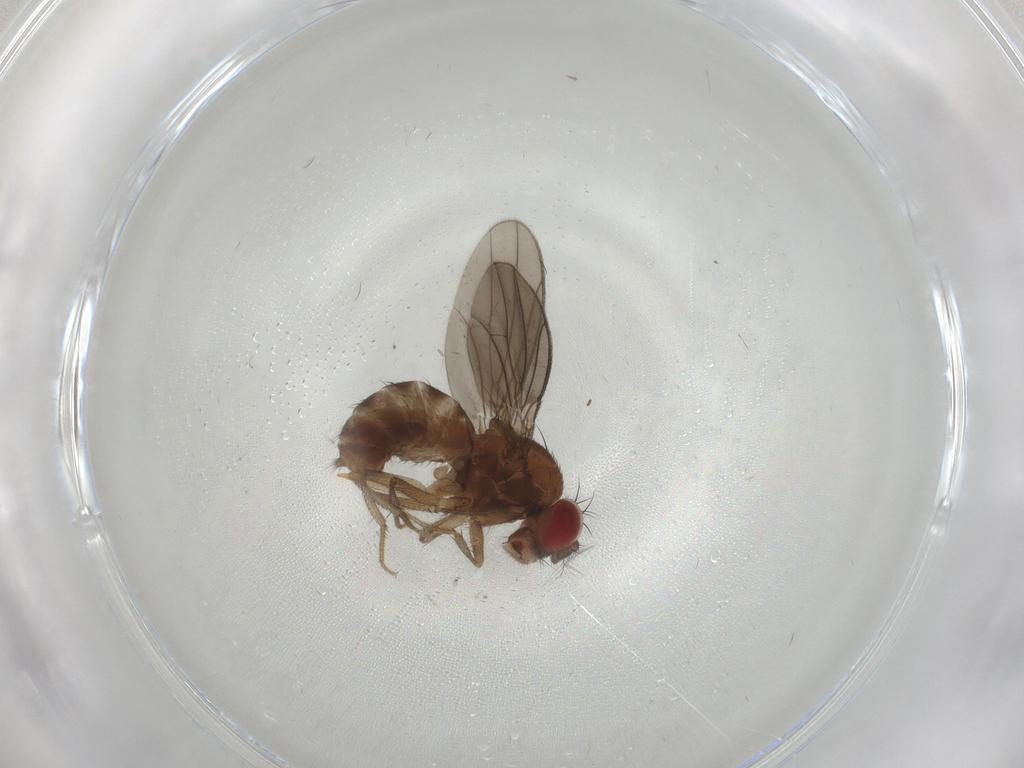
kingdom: Animalia
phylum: Arthropoda
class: Insecta
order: Diptera
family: Drosophilidae
